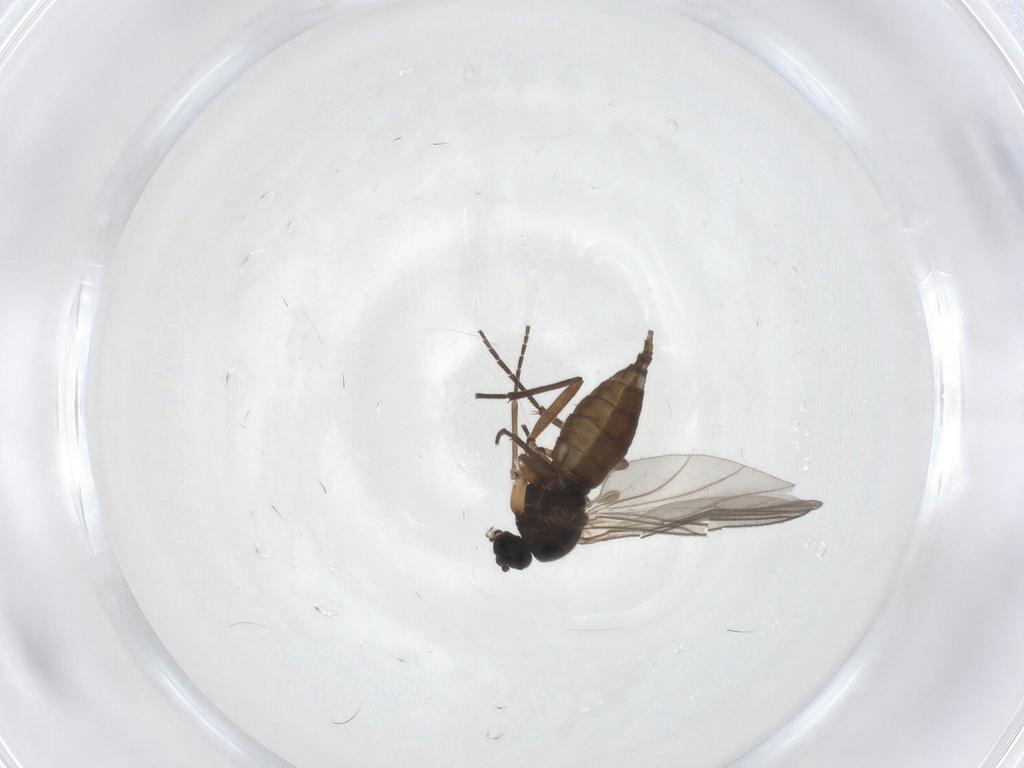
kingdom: Animalia
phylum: Arthropoda
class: Insecta
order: Diptera
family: Sciaridae
